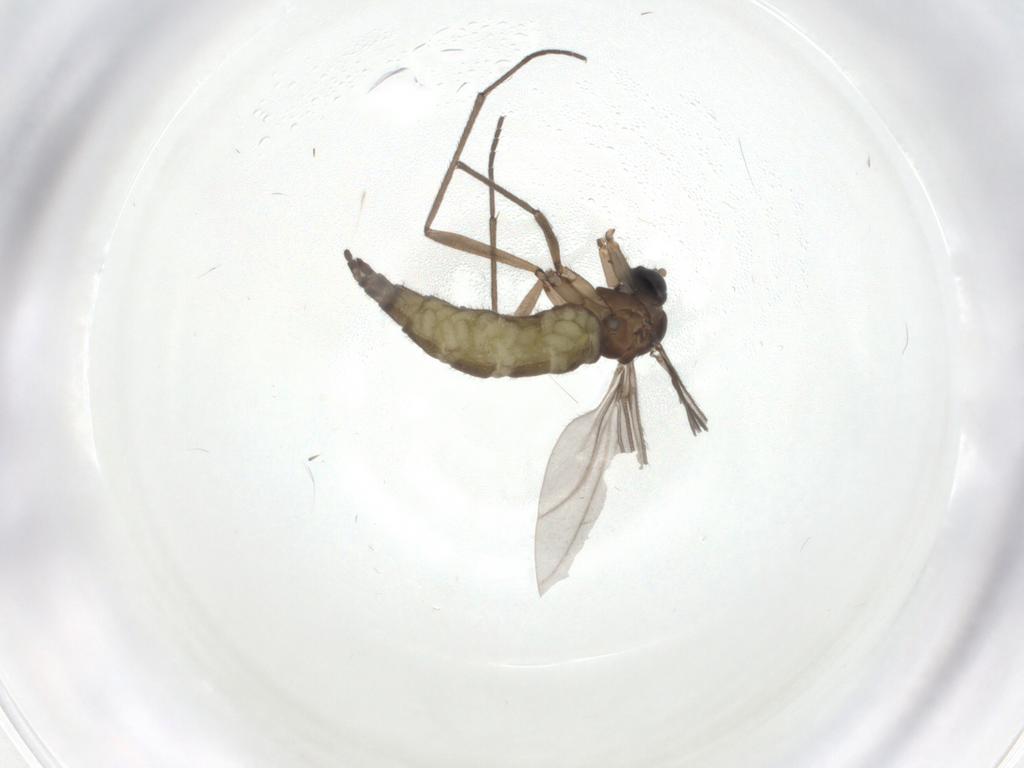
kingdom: Animalia
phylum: Arthropoda
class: Insecta
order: Diptera
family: Sciaridae
